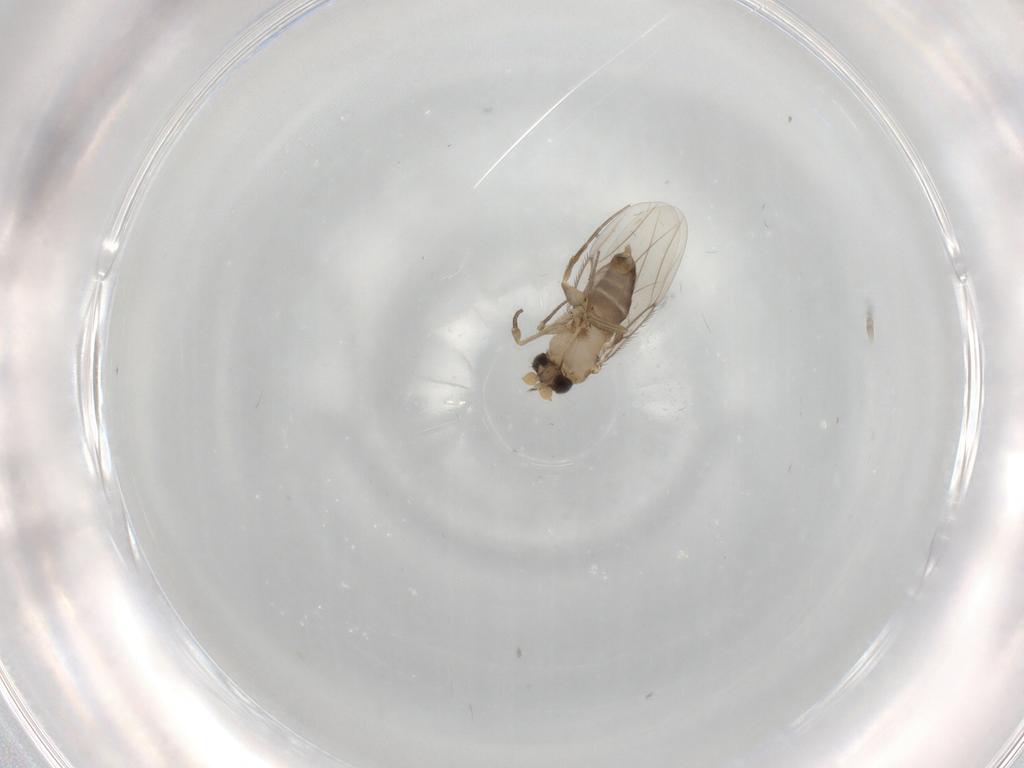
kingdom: Animalia
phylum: Arthropoda
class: Insecta
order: Diptera
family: Phoridae
